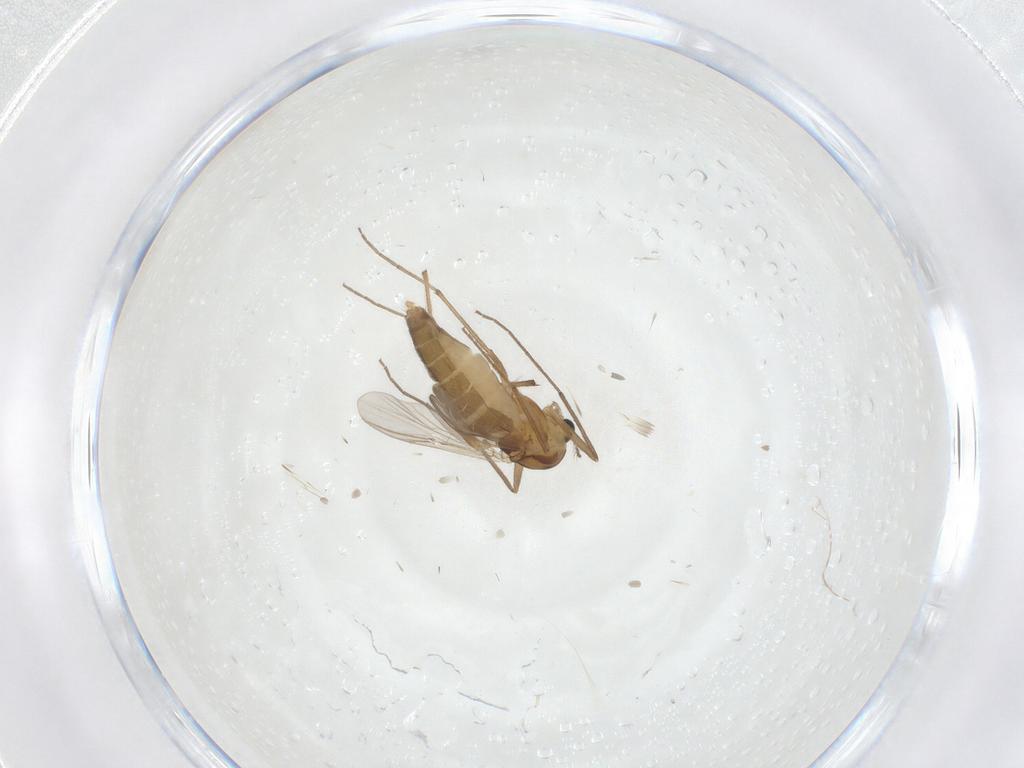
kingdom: Animalia
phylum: Arthropoda
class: Insecta
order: Diptera
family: Chironomidae
